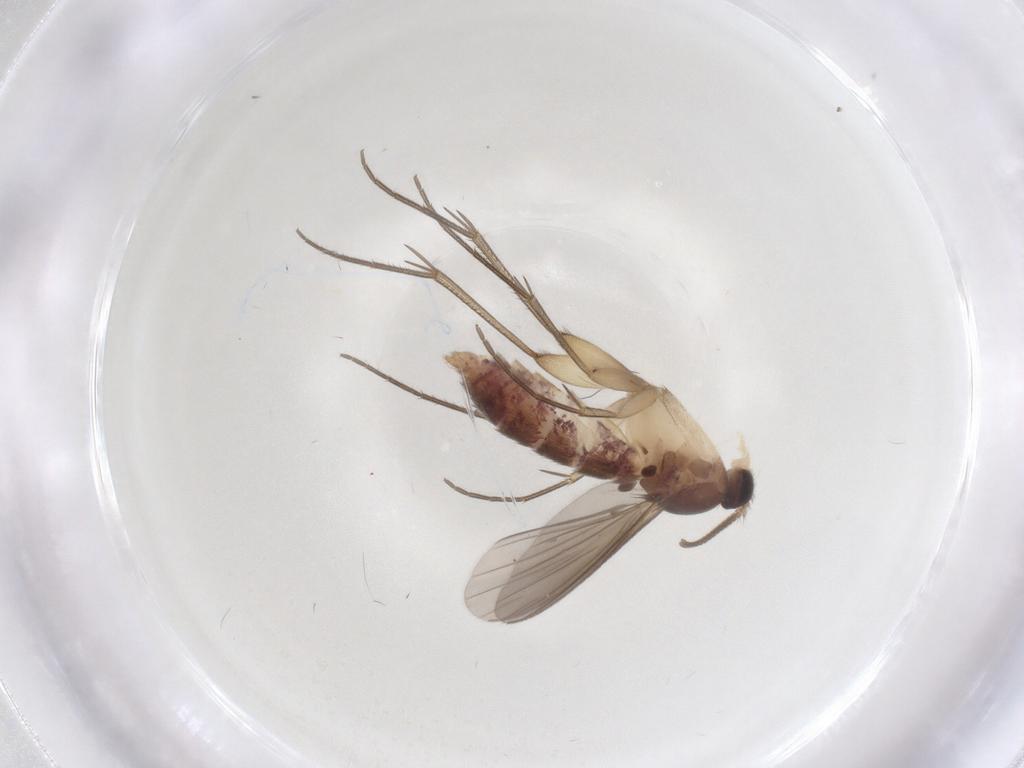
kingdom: Animalia
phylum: Arthropoda
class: Insecta
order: Diptera
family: Mycetophilidae
